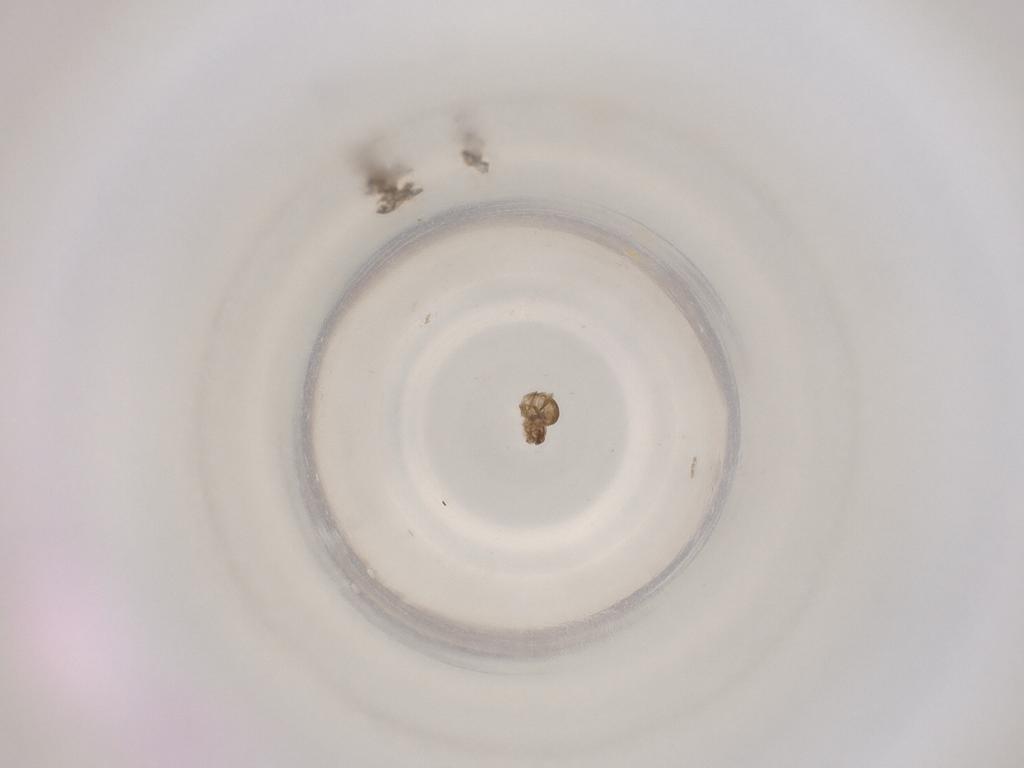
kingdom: Animalia
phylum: Arthropoda
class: Insecta
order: Diptera
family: Cecidomyiidae
